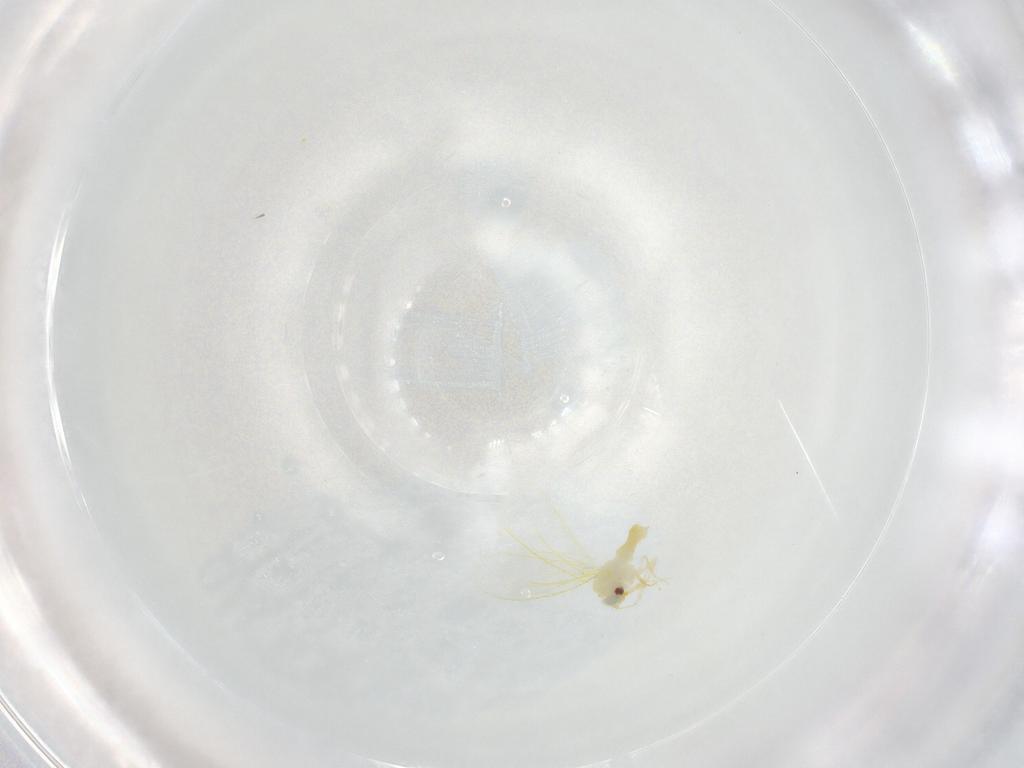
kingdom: Animalia
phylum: Arthropoda
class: Insecta
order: Hemiptera
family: Aleyrodidae
